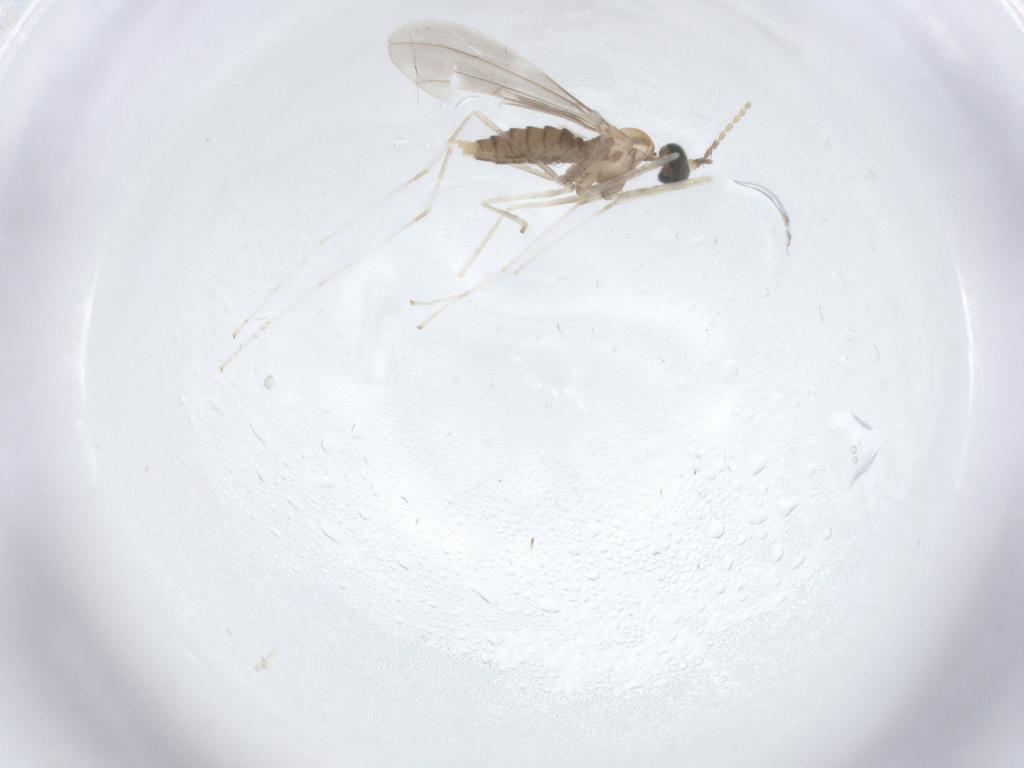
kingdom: Animalia
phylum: Arthropoda
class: Insecta
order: Diptera
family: Cecidomyiidae
